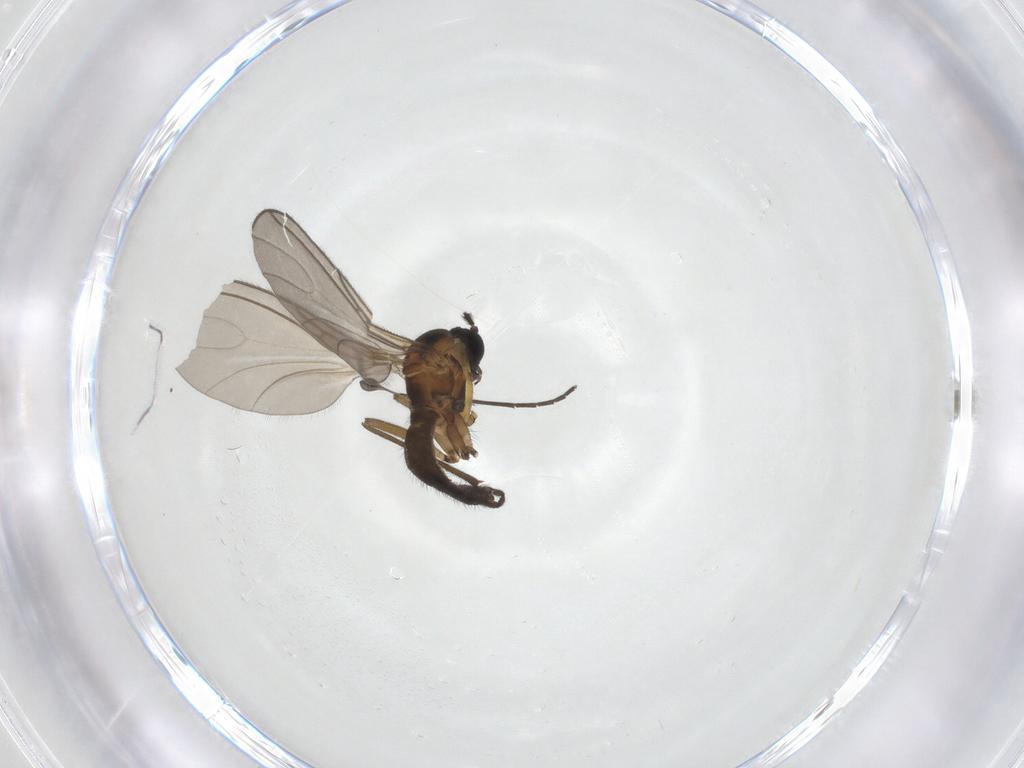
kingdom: Animalia
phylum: Arthropoda
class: Insecta
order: Diptera
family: Sciaridae
